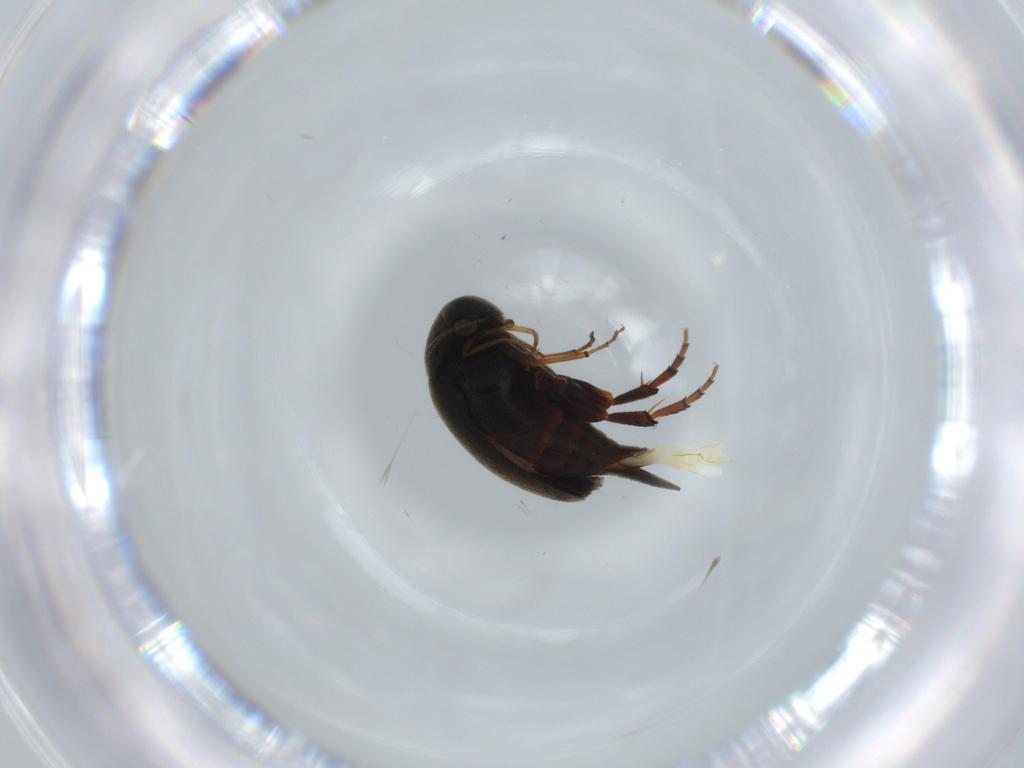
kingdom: Animalia
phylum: Arthropoda
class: Insecta
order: Coleoptera
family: Mordellidae
